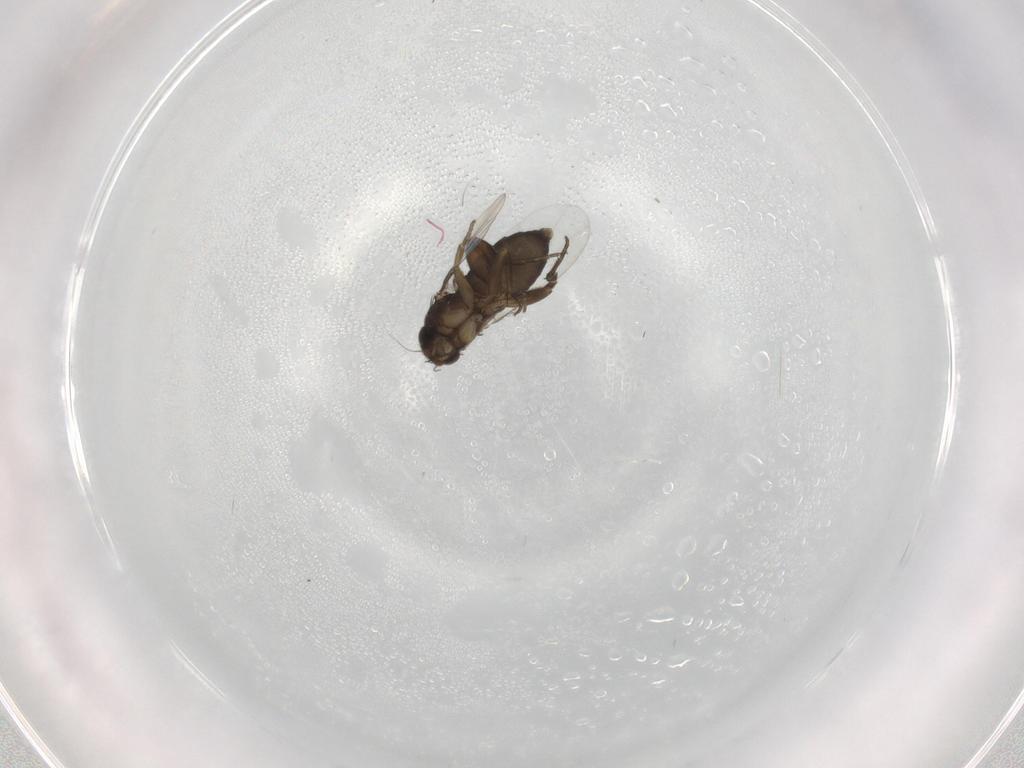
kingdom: Animalia
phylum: Arthropoda
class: Insecta
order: Diptera
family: Phoridae
